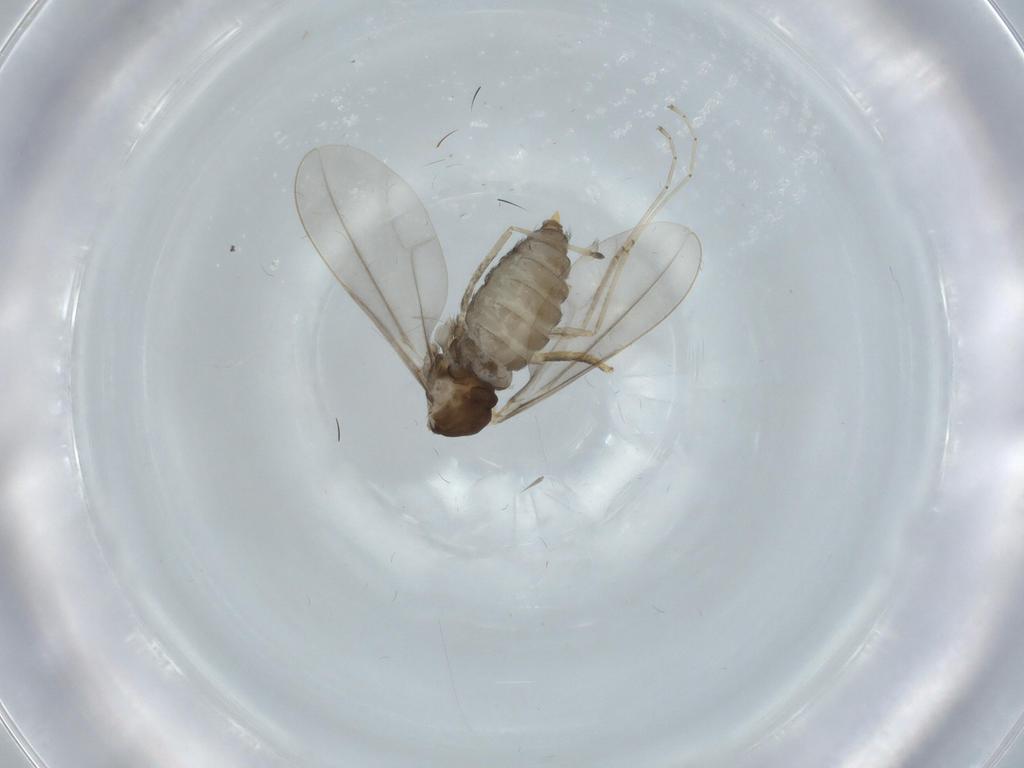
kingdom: Animalia
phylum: Arthropoda
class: Insecta
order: Diptera
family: Cecidomyiidae
